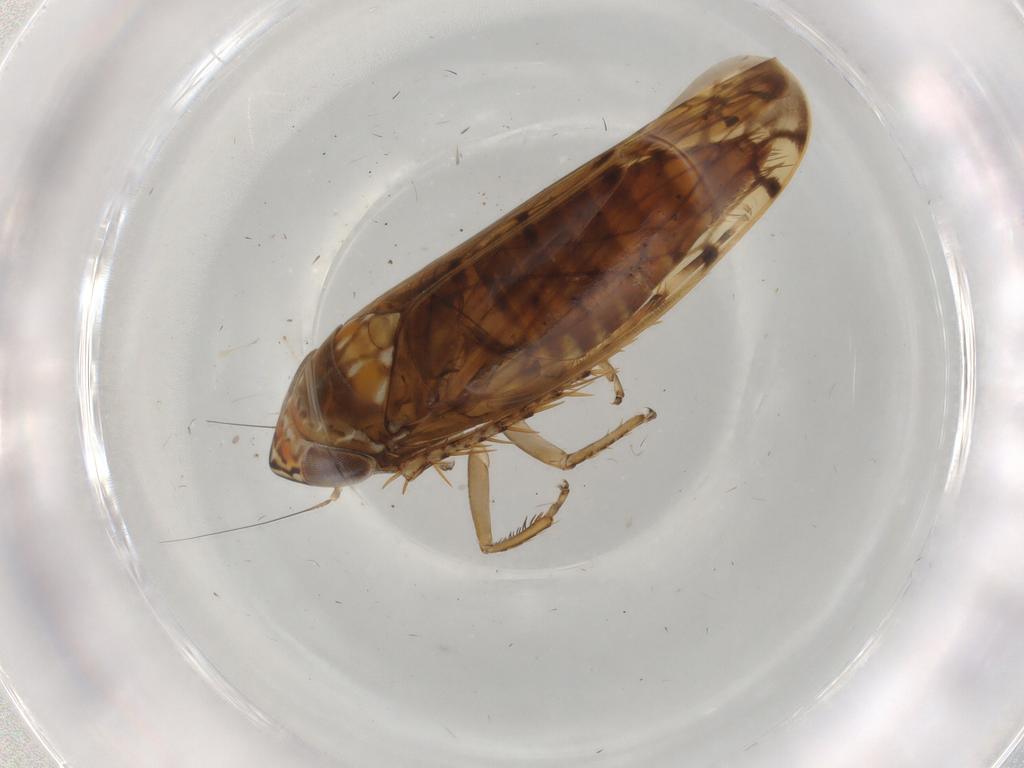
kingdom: Animalia
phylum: Arthropoda
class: Insecta
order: Hemiptera
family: Cicadellidae
